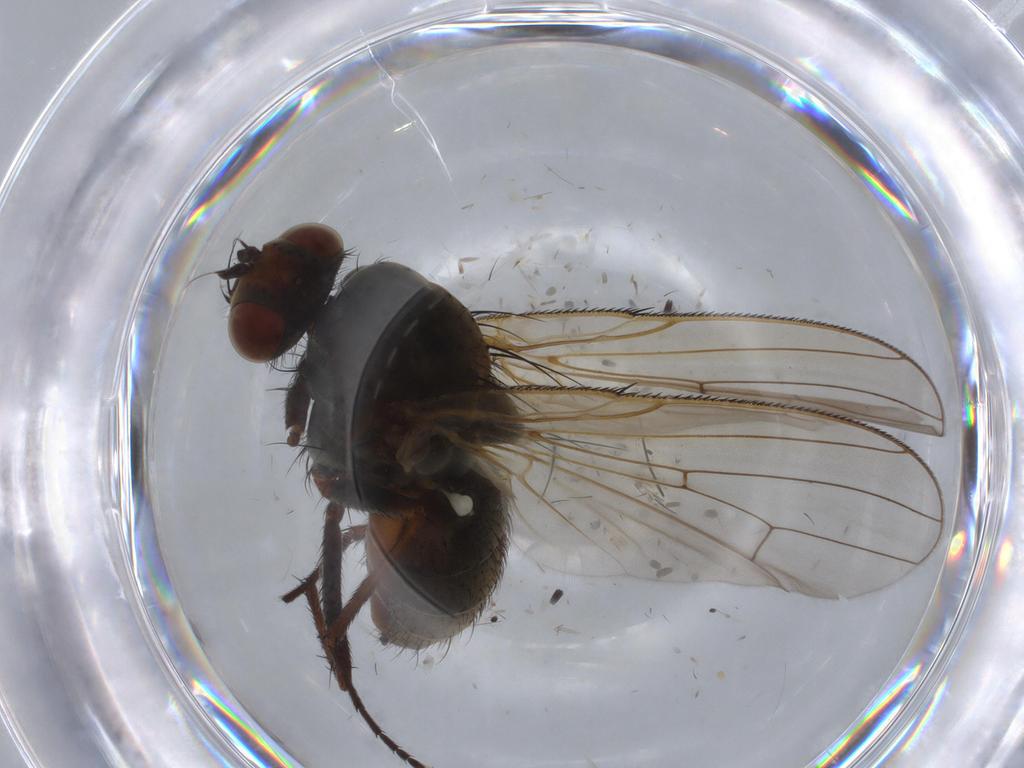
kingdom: Animalia
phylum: Arthropoda
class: Insecta
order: Diptera
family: Anthomyiidae
